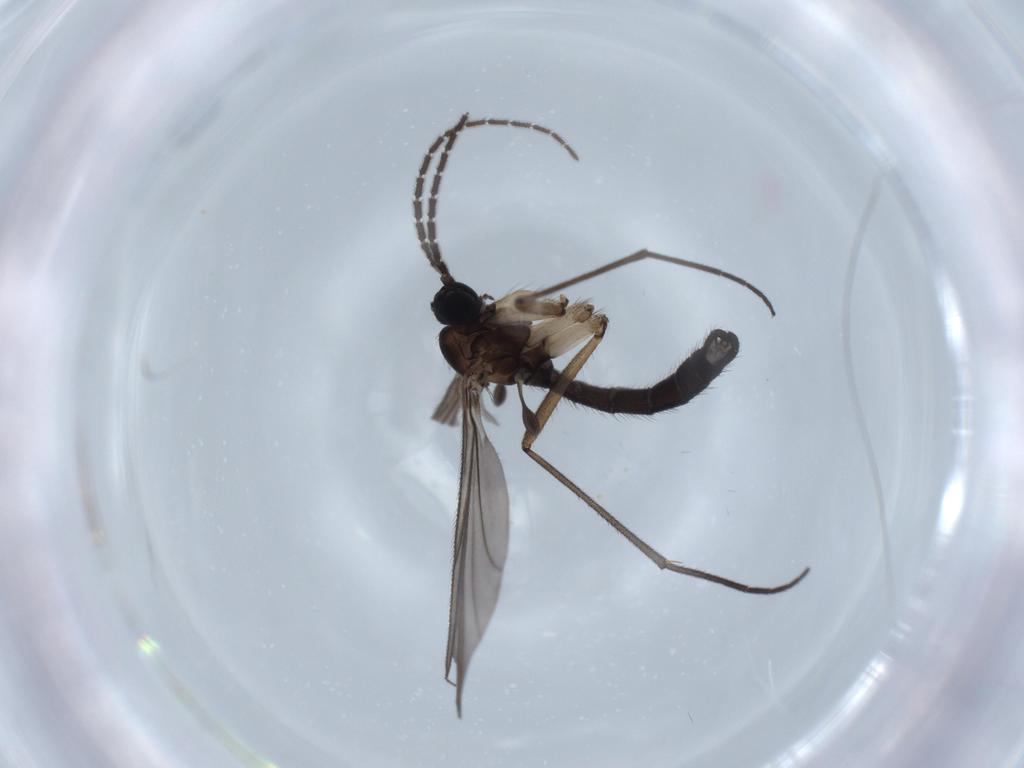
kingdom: Animalia
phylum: Arthropoda
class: Insecta
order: Diptera
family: Sciaridae
